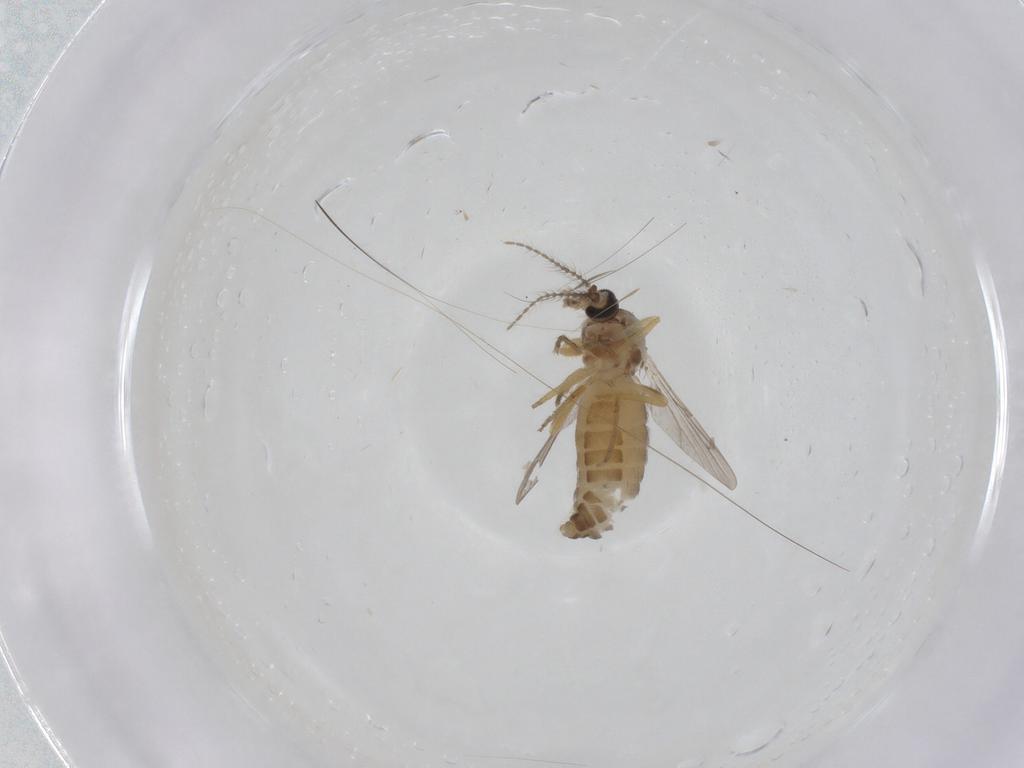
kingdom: Animalia
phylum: Arthropoda
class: Insecta
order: Diptera
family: Ceratopogonidae
